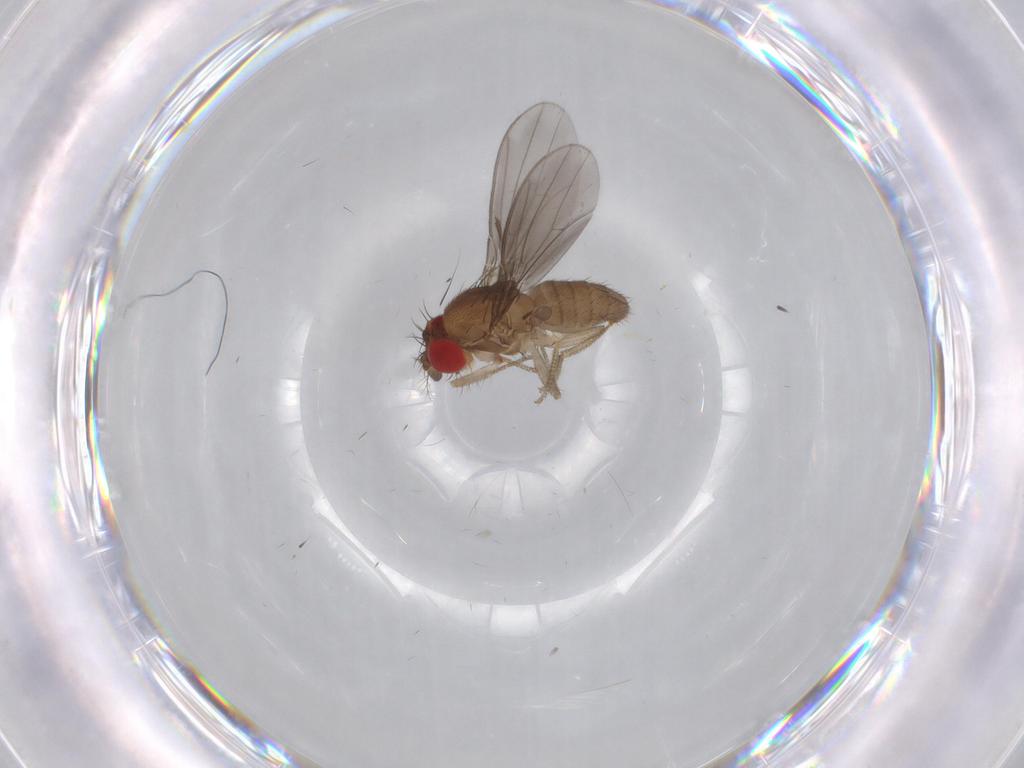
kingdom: Animalia
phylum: Arthropoda
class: Insecta
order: Diptera
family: Drosophilidae
